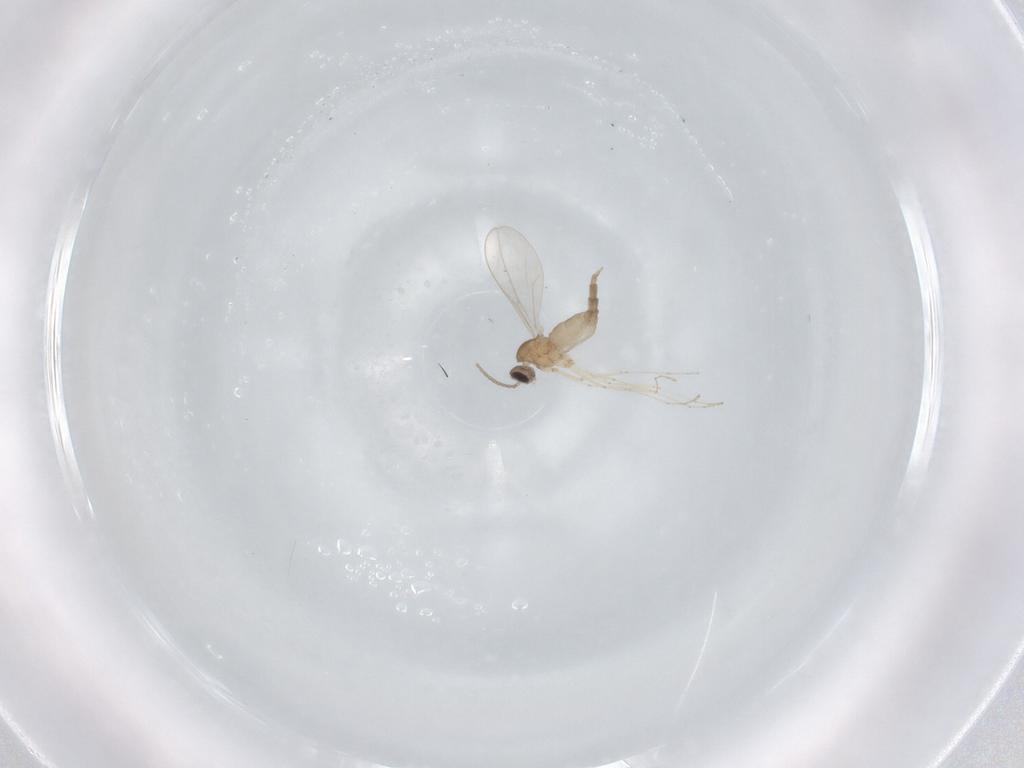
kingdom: Animalia
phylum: Arthropoda
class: Insecta
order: Diptera
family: Cecidomyiidae
